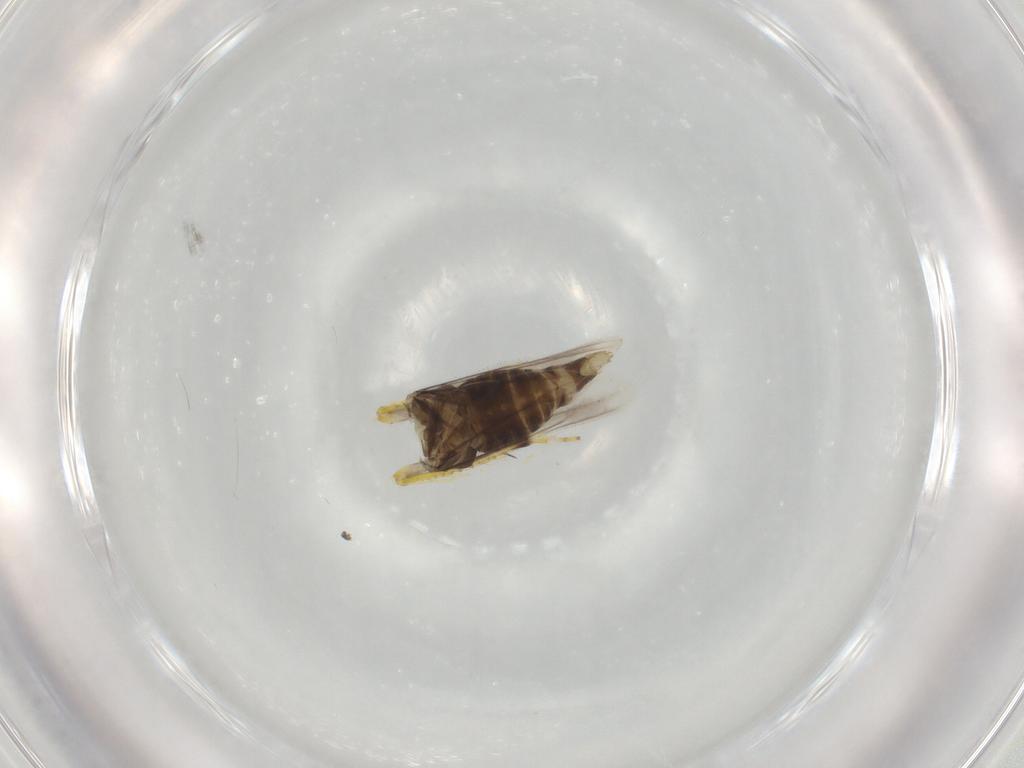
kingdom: Animalia
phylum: Arthropoda
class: Insecta
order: Hemiptera
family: Cicadellidae
